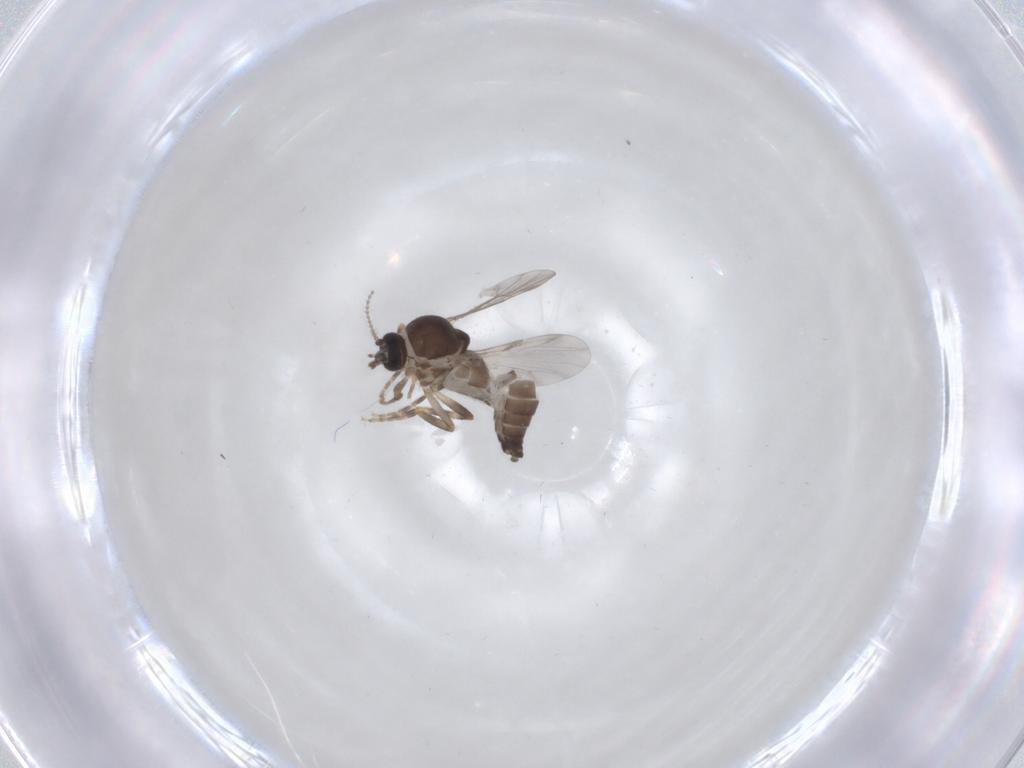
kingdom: Animalia
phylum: Arthropoda
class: Insecta
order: Diptera
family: Ceratopogonidae
